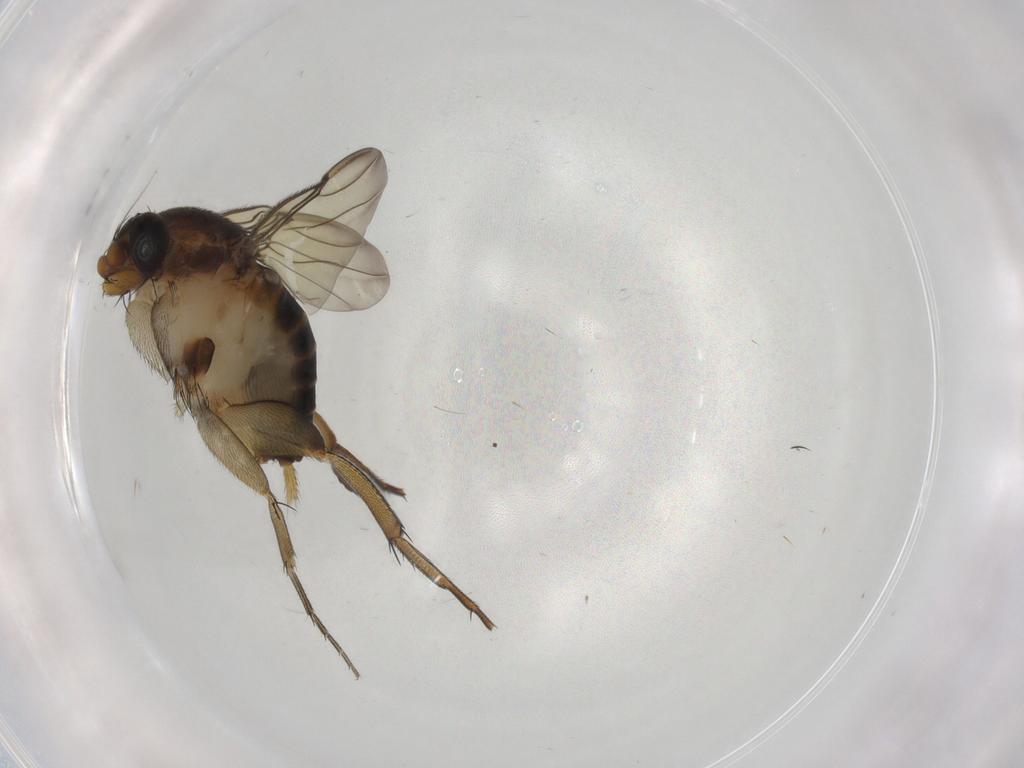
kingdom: Animalia
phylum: Arthropoda
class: Insecta
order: Diptera
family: Phoridae
